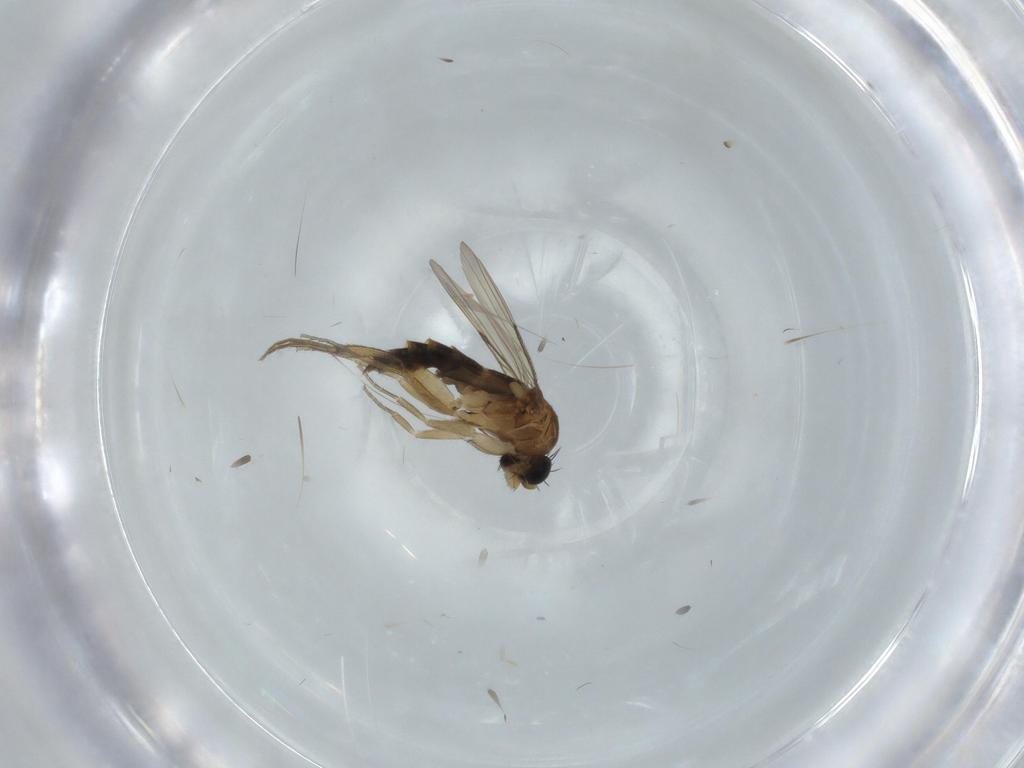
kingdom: Animalia
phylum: Arthropoda
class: Insecta
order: Diptera
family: Phoridae
